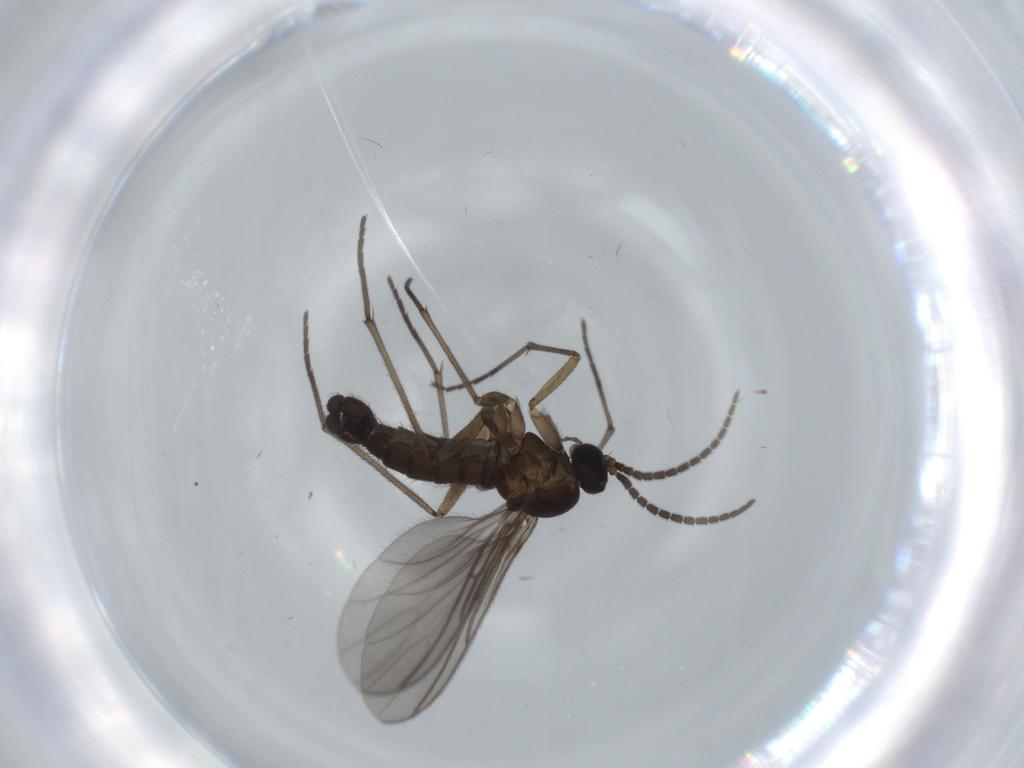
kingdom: Animalia
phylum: Arthropoda
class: Insecta
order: Diptera
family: Sciaridae
